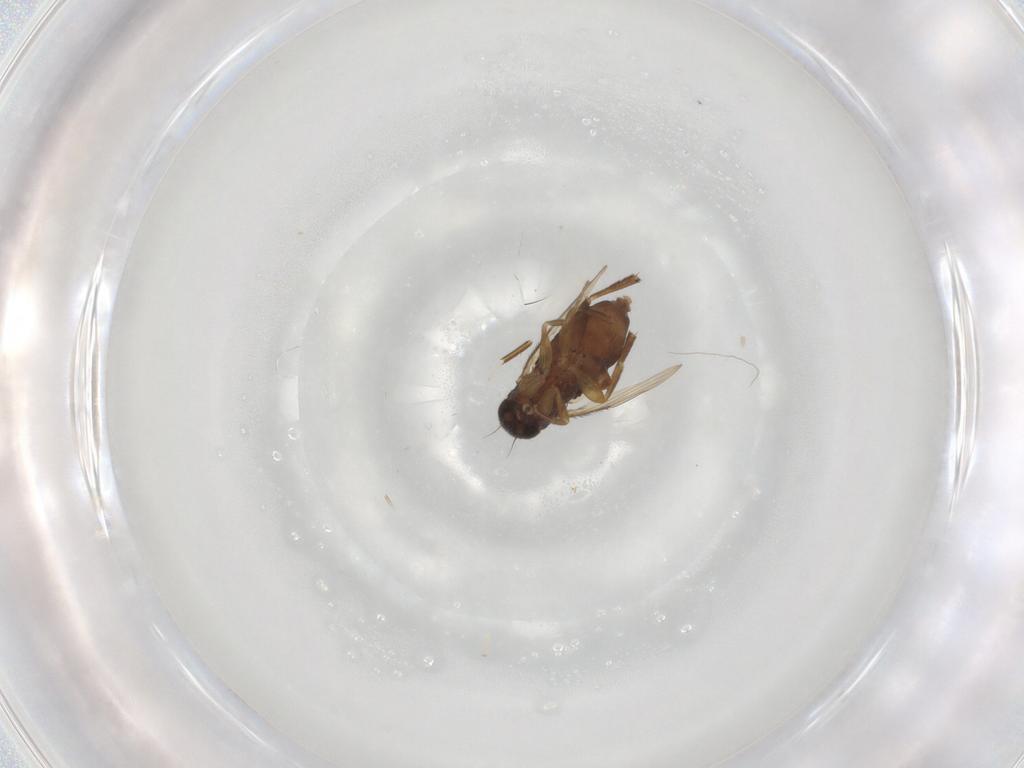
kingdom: Animalia
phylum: Arthropoda
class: Insecta
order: Diptera
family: Phoridae
